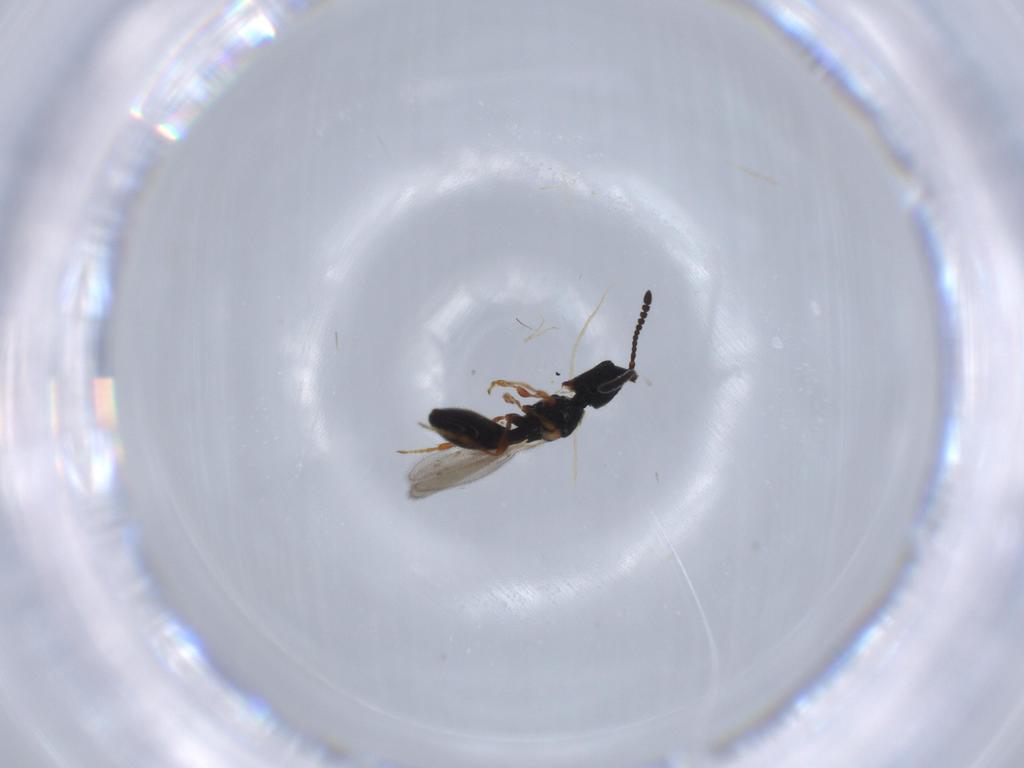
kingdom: Animalia
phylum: Arthropoda
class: Insecta
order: Hymenoptera
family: Diapriidae
